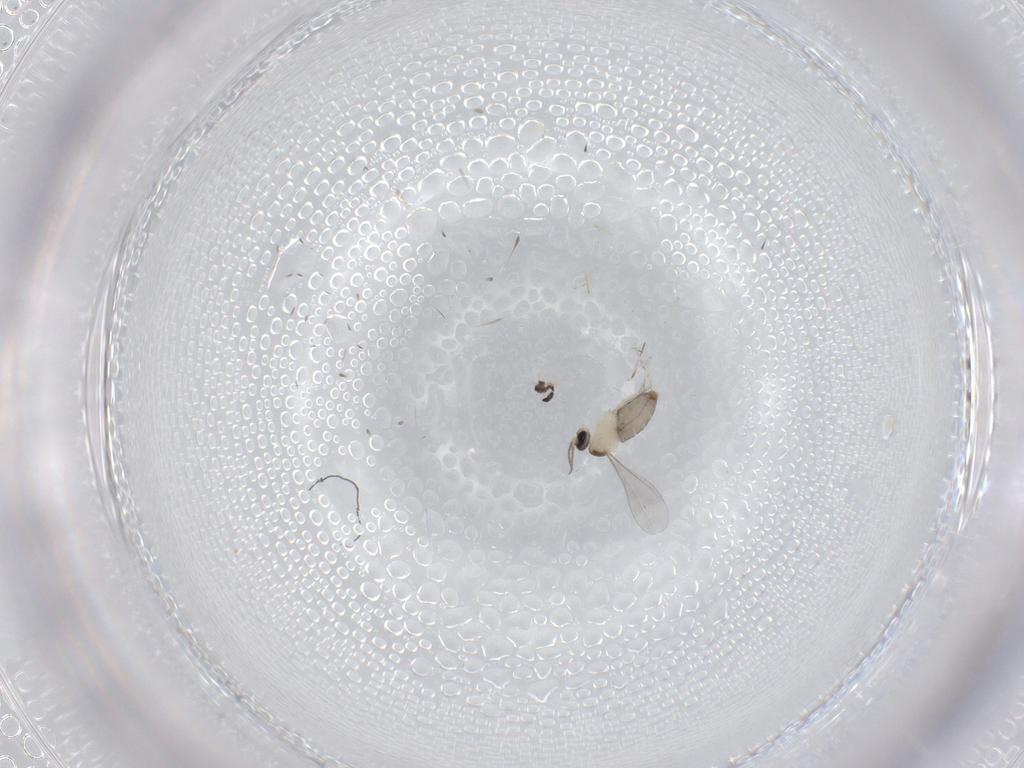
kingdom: Animalia
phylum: Arthropoda
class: Insecta
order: Diptera
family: Cecidomyiidae
